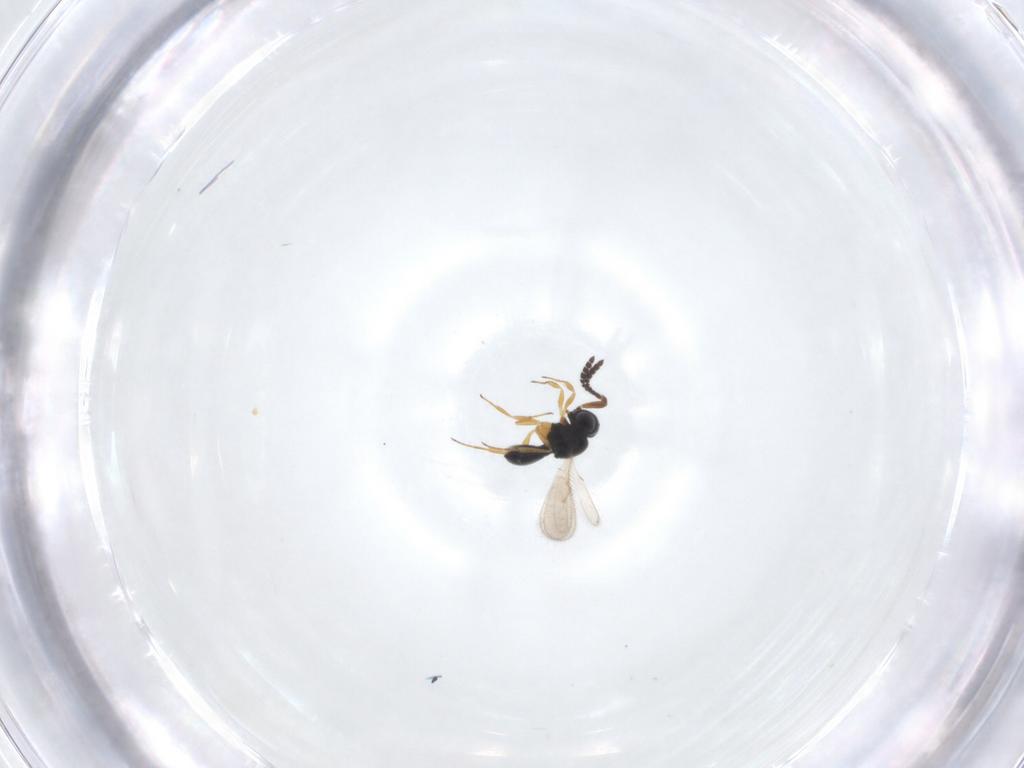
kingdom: Animalia
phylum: Arthropoda
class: Insecta
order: Hymenoptera
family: Scelionidae
